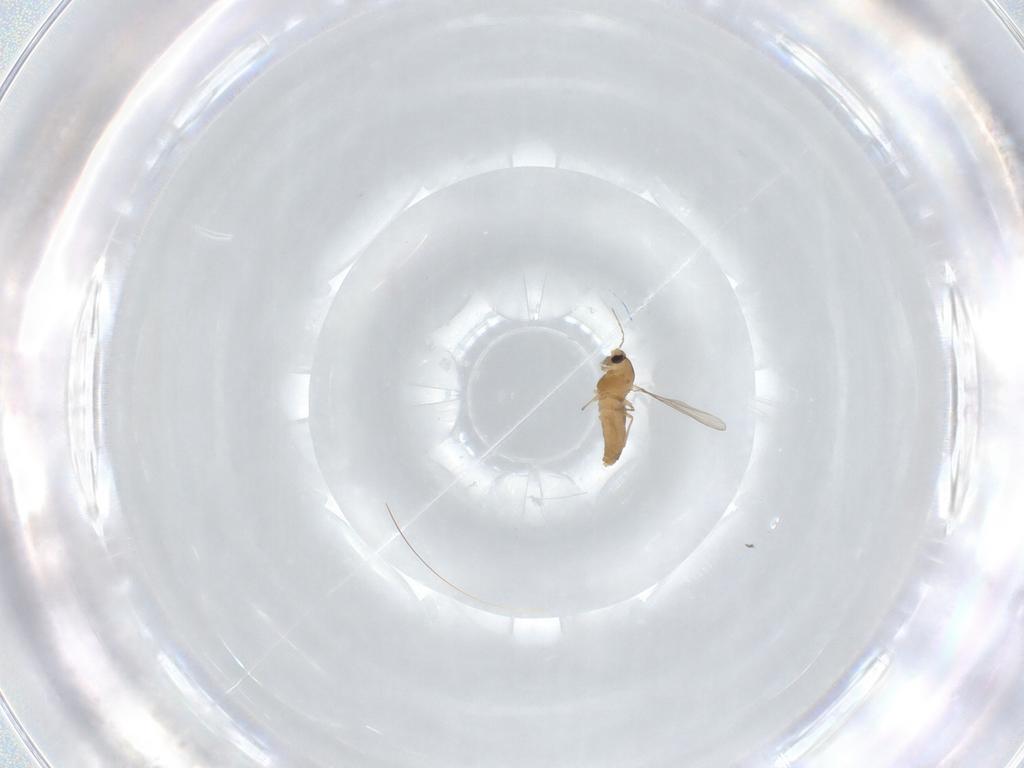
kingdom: Animalia
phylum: Arthropoda
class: Insecta
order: Diptera
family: Chironomidae
